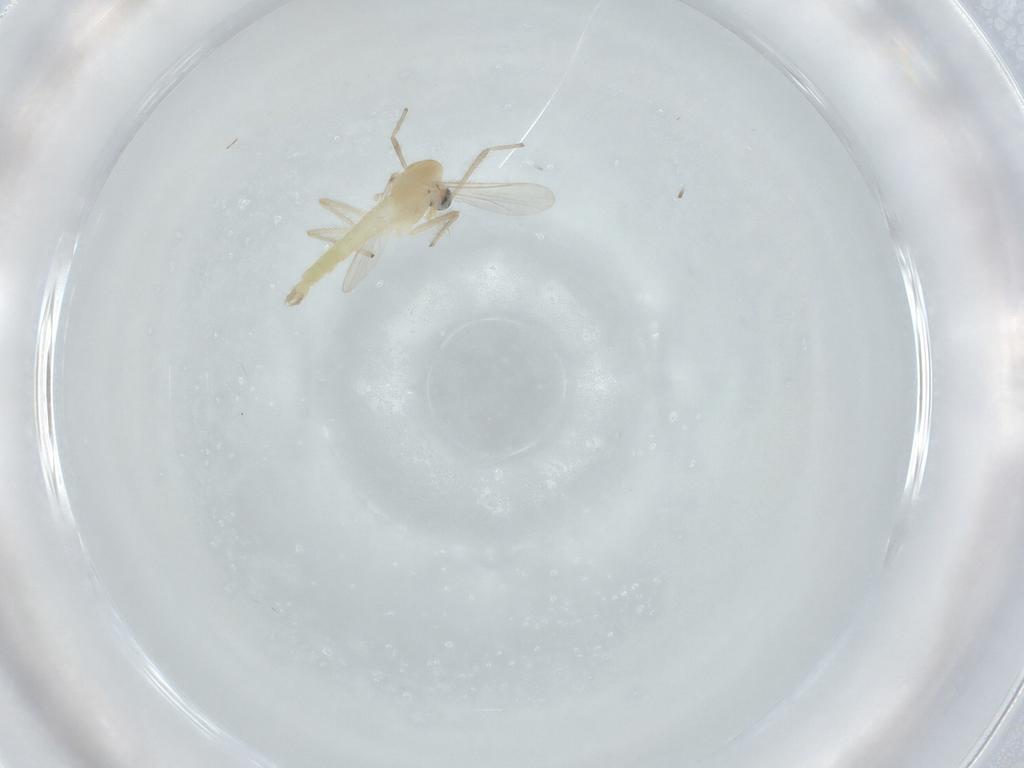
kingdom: Animalia
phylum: Arthropoda
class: Insecta
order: Diptera
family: Chironomidae
